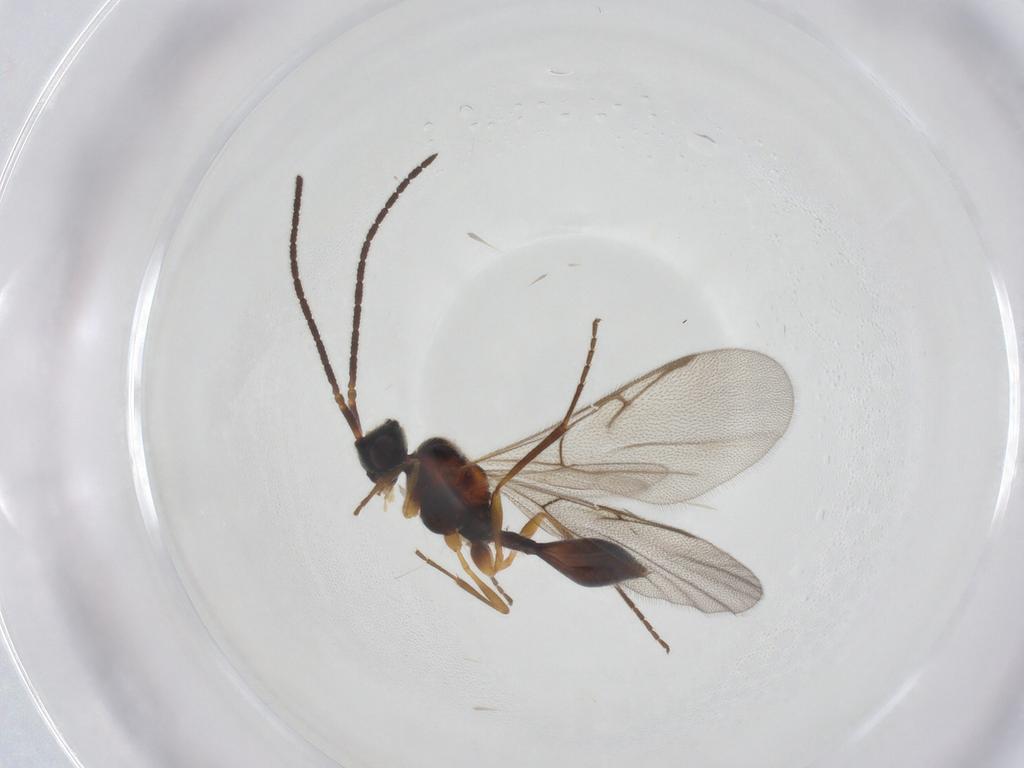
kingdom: Animalia
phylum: Arthropoda
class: Insecta
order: Hymenoptera
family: Diapriidae
